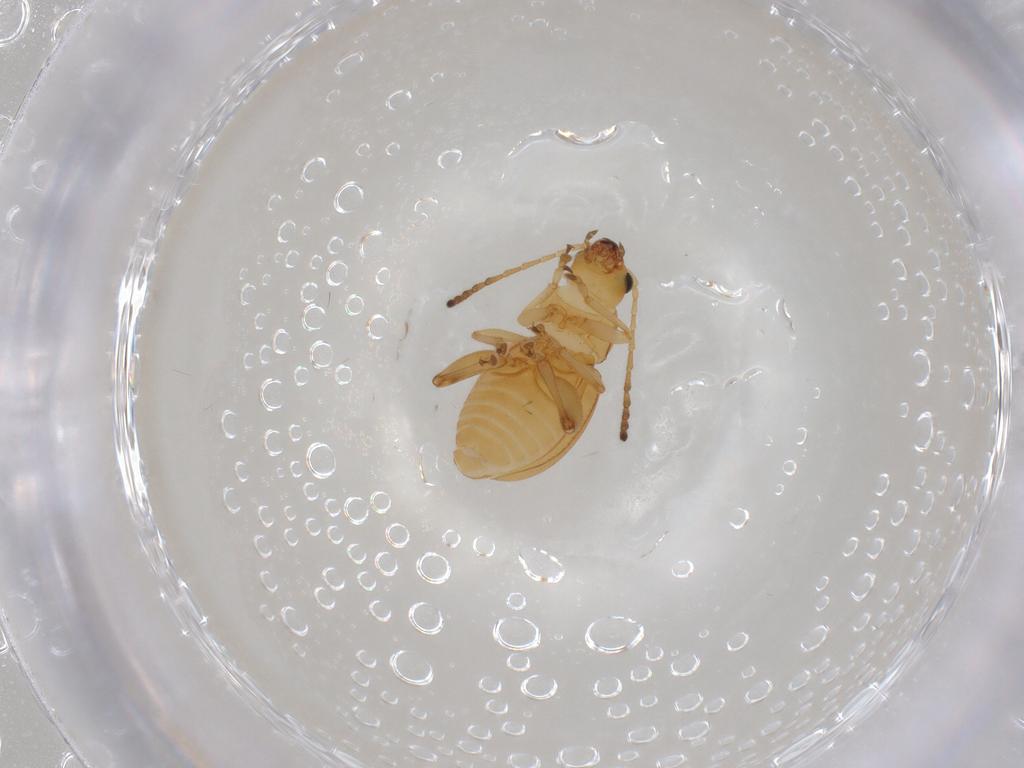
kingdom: Animalia
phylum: Arthropoda
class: Insecta
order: Coleoptera
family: Chrysomelidae
